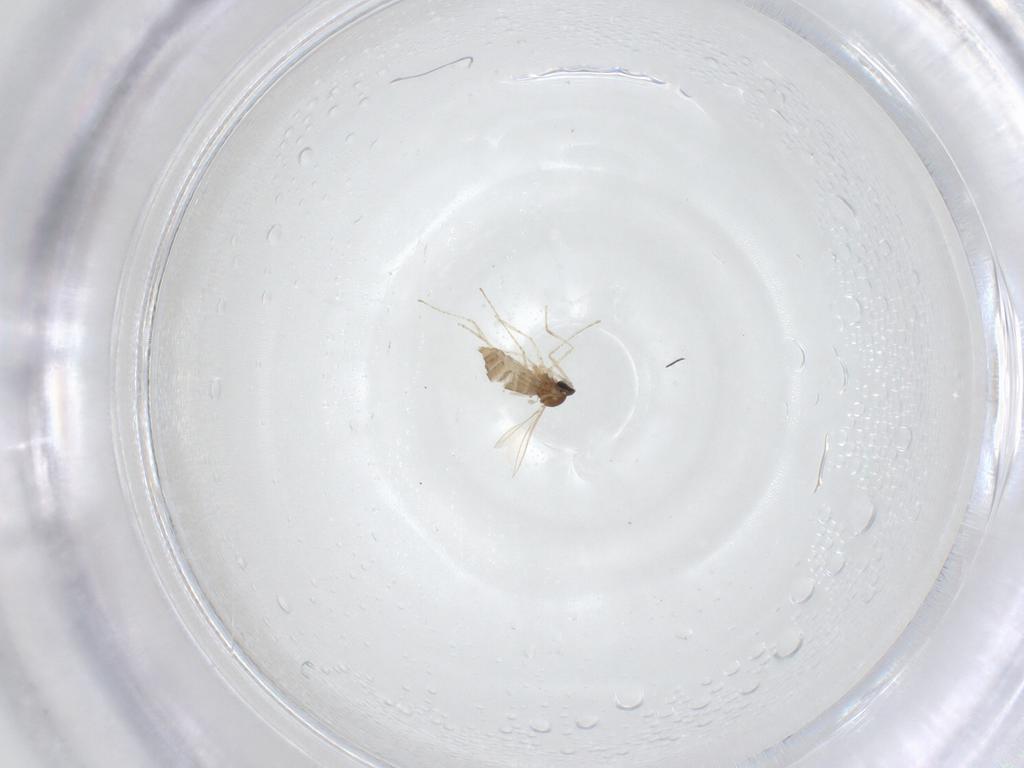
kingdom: Animalia
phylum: Arthropoda
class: Insecta
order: Diptera
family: Cecidomyiidae
